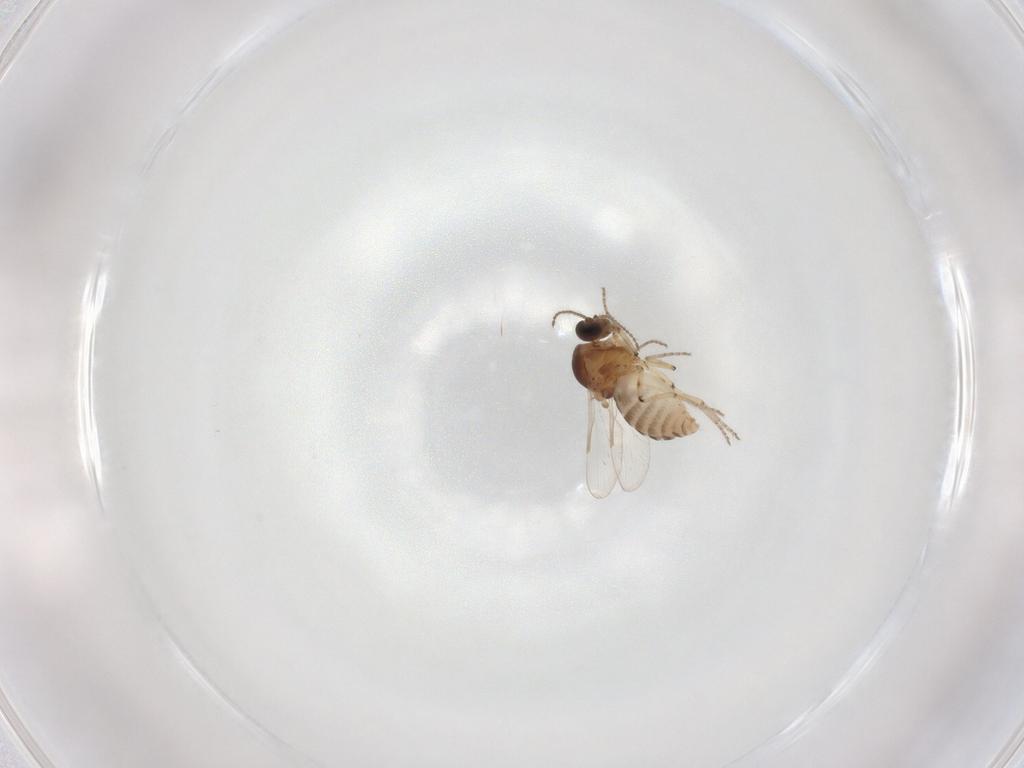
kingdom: Animalia
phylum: Arthropoda
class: Insecta
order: Diptera
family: Ceratopogonidae
